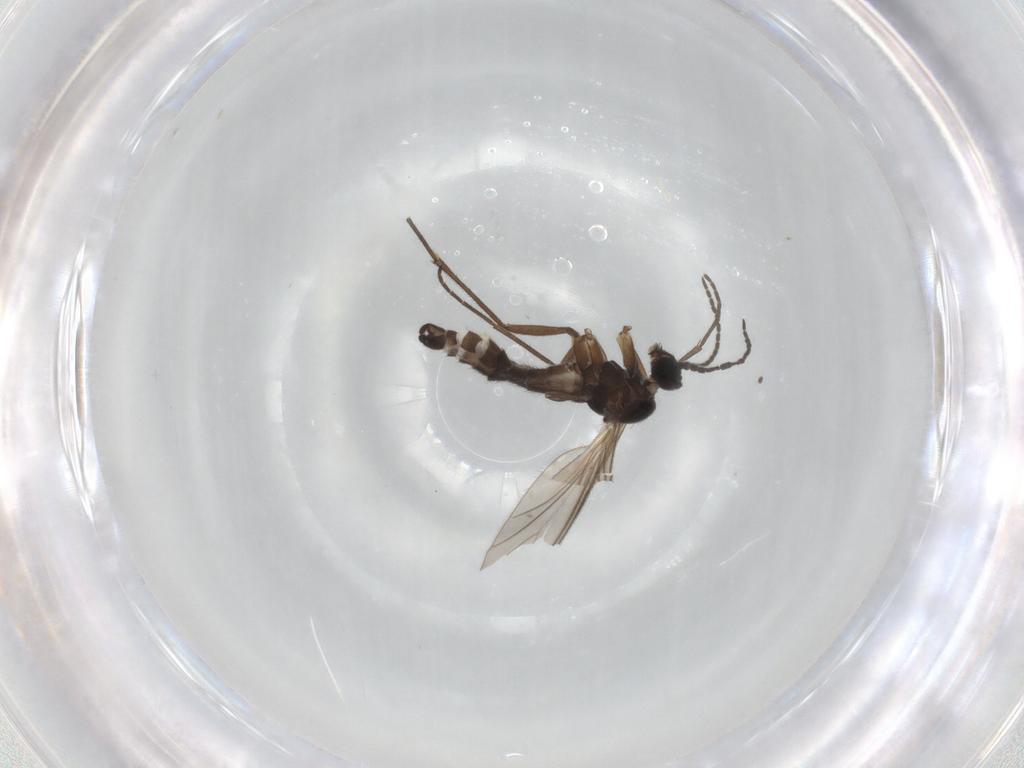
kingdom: Animalia
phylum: Arthropoda
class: Insecta
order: Diptera
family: Sciaridae
